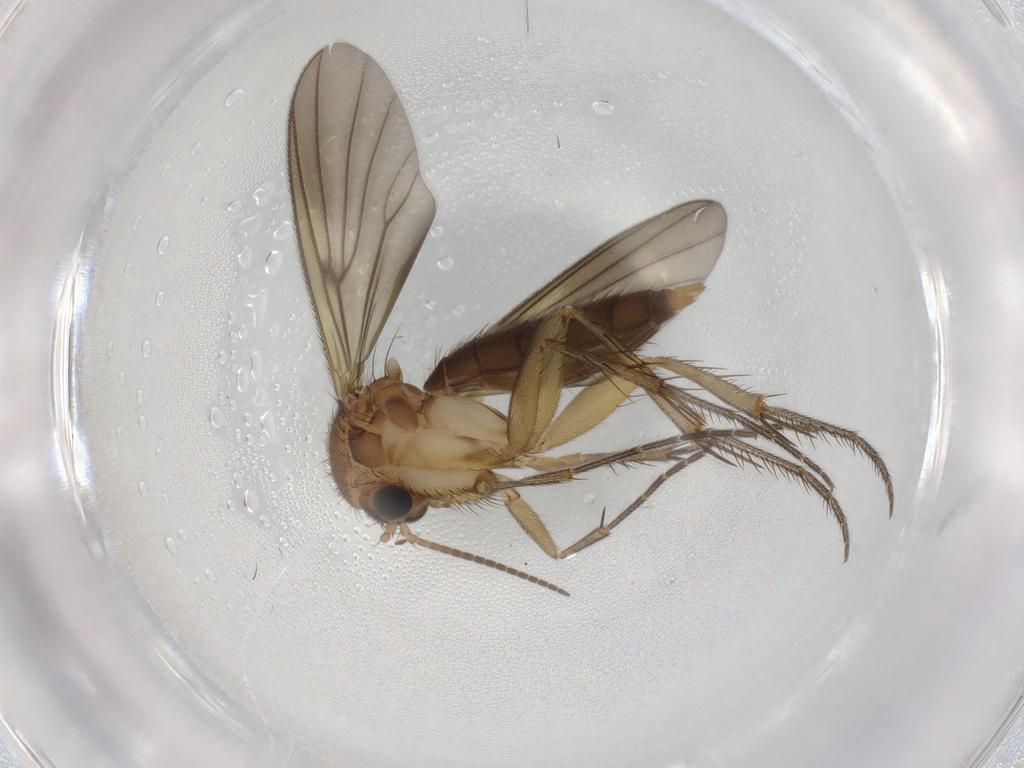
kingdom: Animalia
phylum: Arthropoda
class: Insecta
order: Diptera
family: Mycetophilidae
